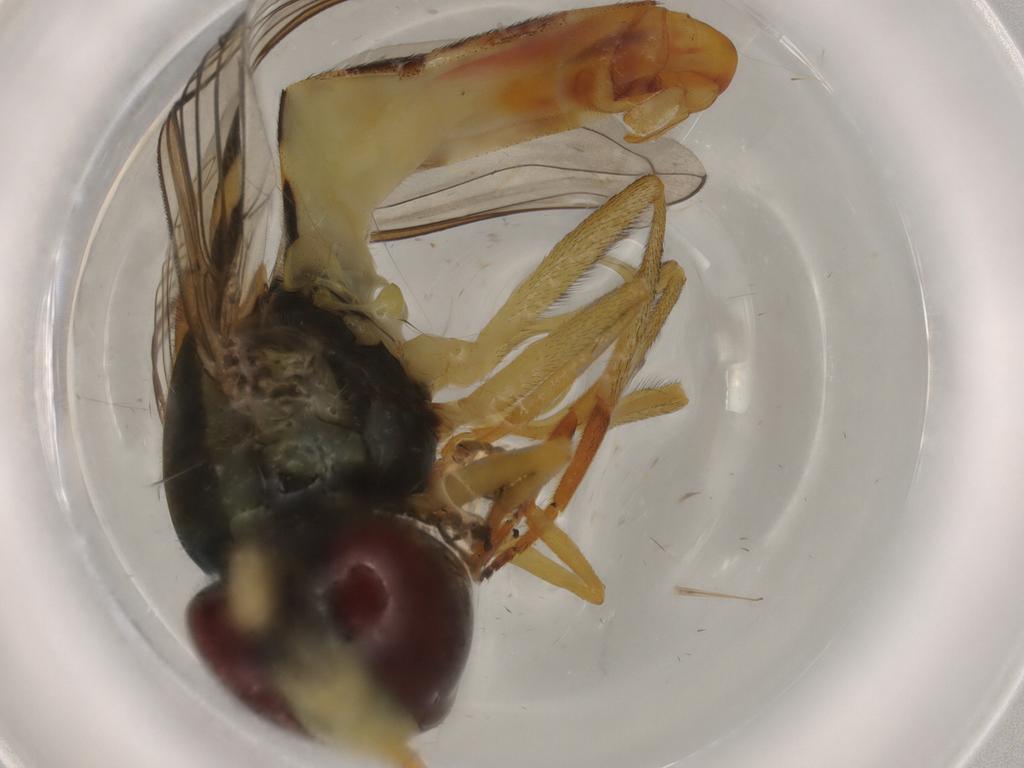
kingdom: Animalia
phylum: Arthropoda
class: Insecta
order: Diptera
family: Syrphidae
